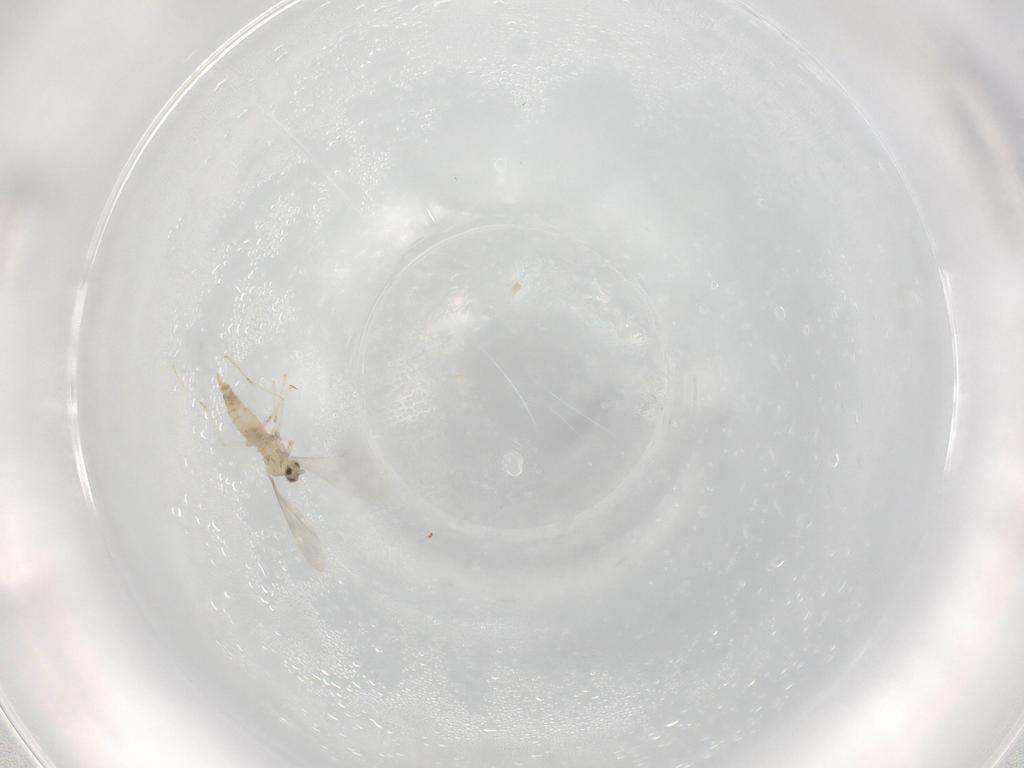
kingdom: Animalia
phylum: Arthropoda
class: Insecta
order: Diptera
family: Cecidomyiidae
